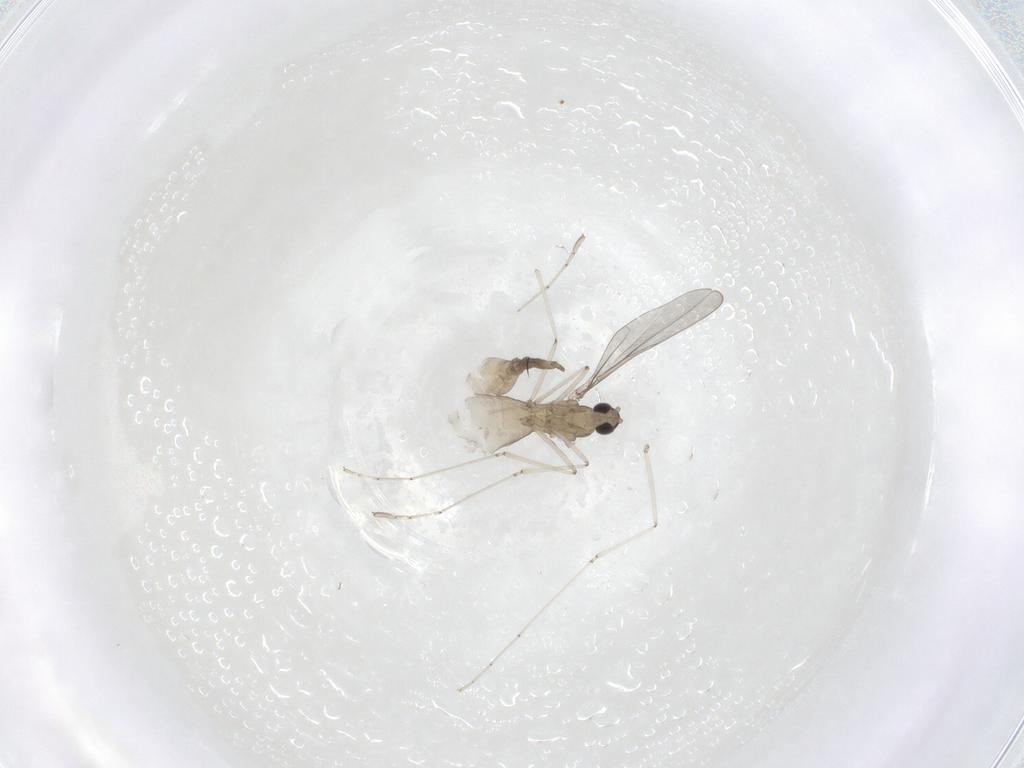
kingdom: Animalia
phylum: Arthropoda
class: Insecta
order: Diptera
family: Cecidomyiidae
